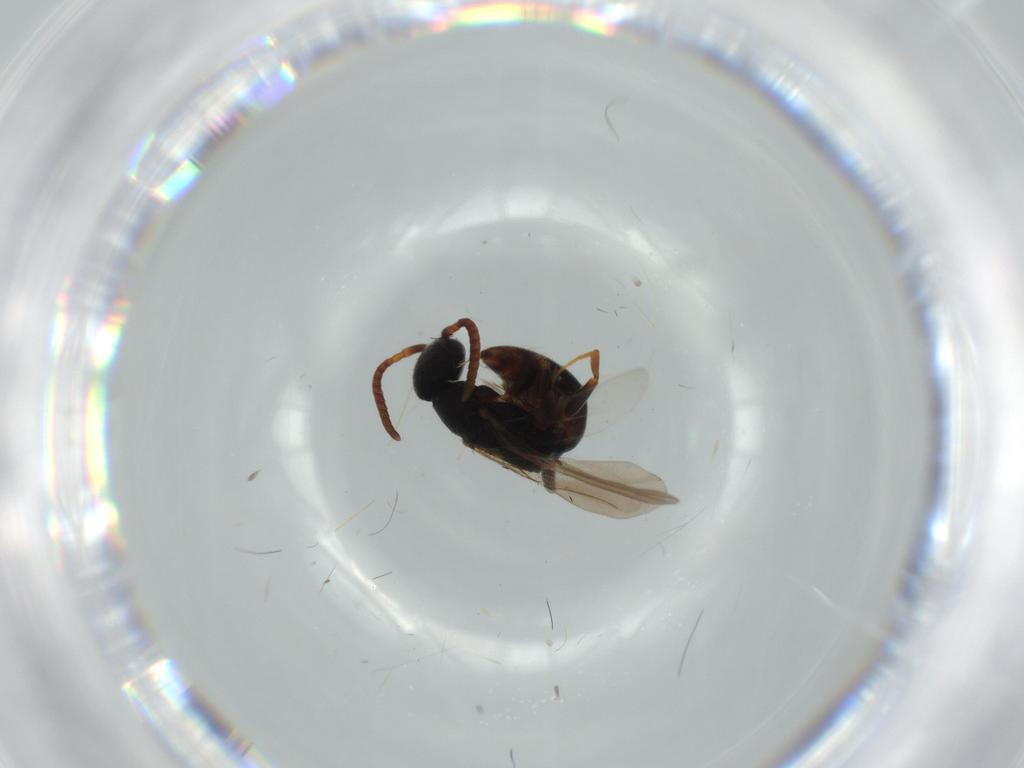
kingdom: Animalia
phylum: Arthropoda
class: Insecta
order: Hymenoptera
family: Bethylidae
